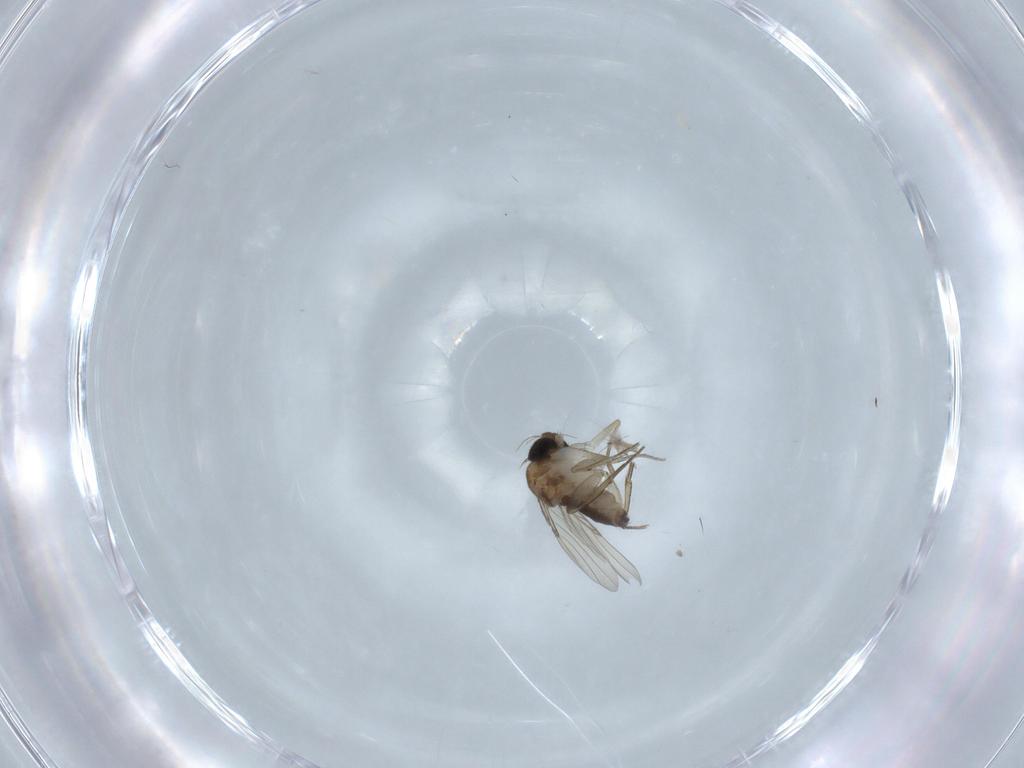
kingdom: Animalia
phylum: Arthropoda
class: Insecta
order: Diptera
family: Phoridae
